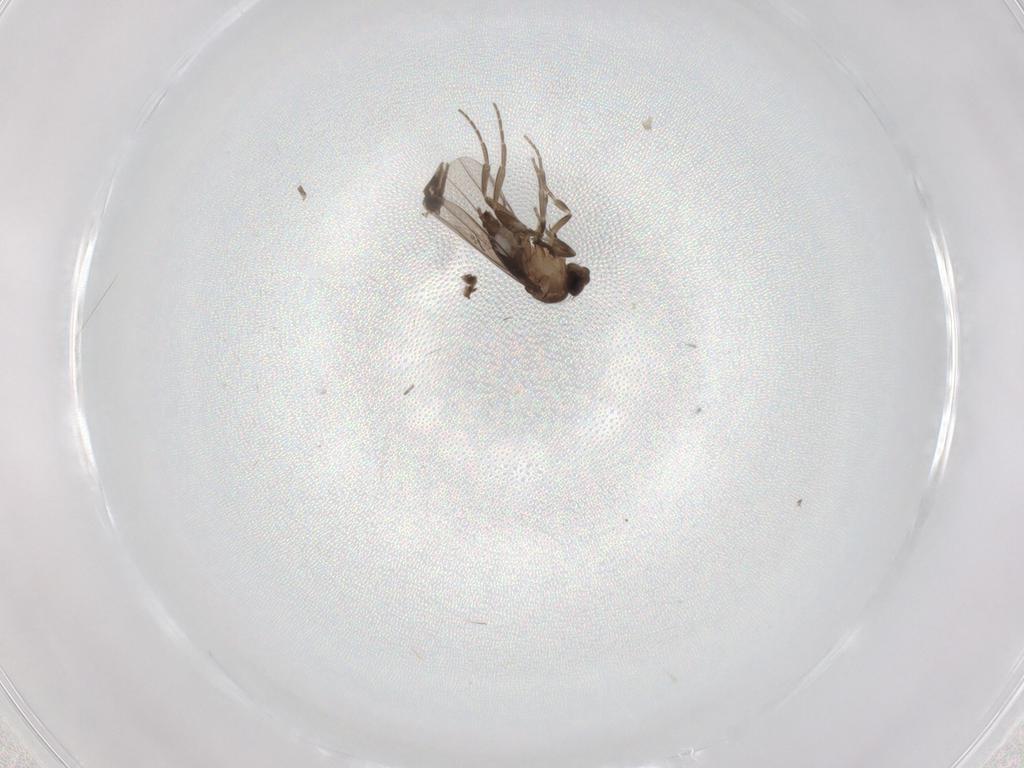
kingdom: Animalia
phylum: Arthropoda
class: Insecta
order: Diptera
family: Phoridae
